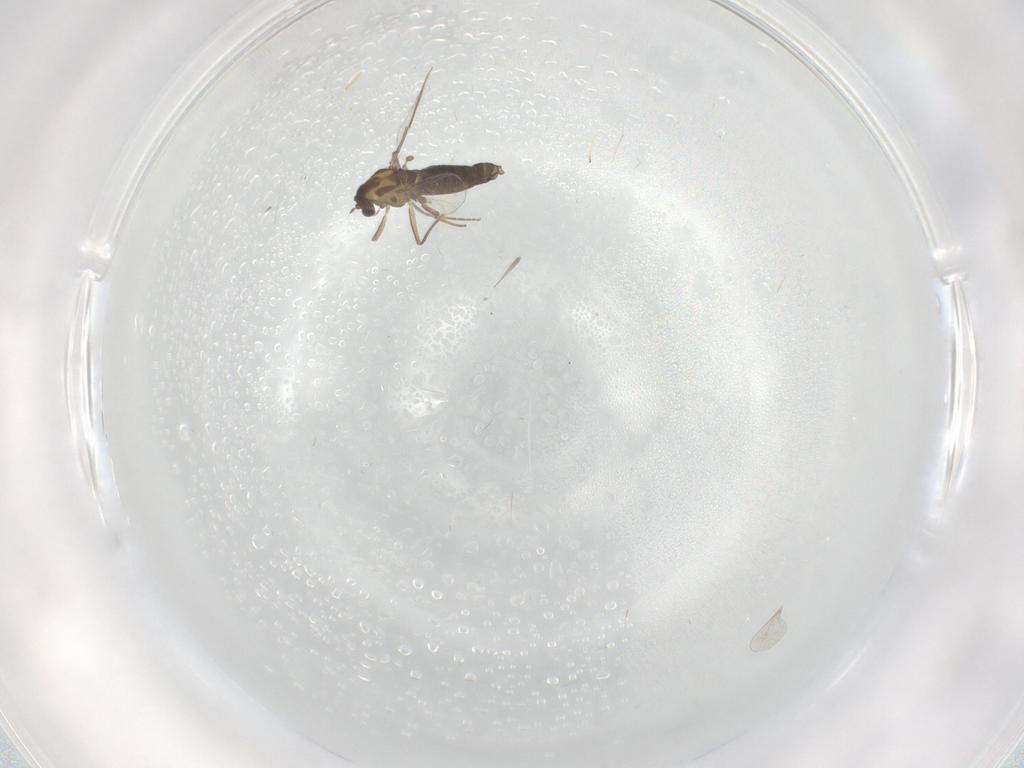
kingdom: Animalia
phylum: Arthropoda
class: Insecta
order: Diptera
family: Chironomidae
